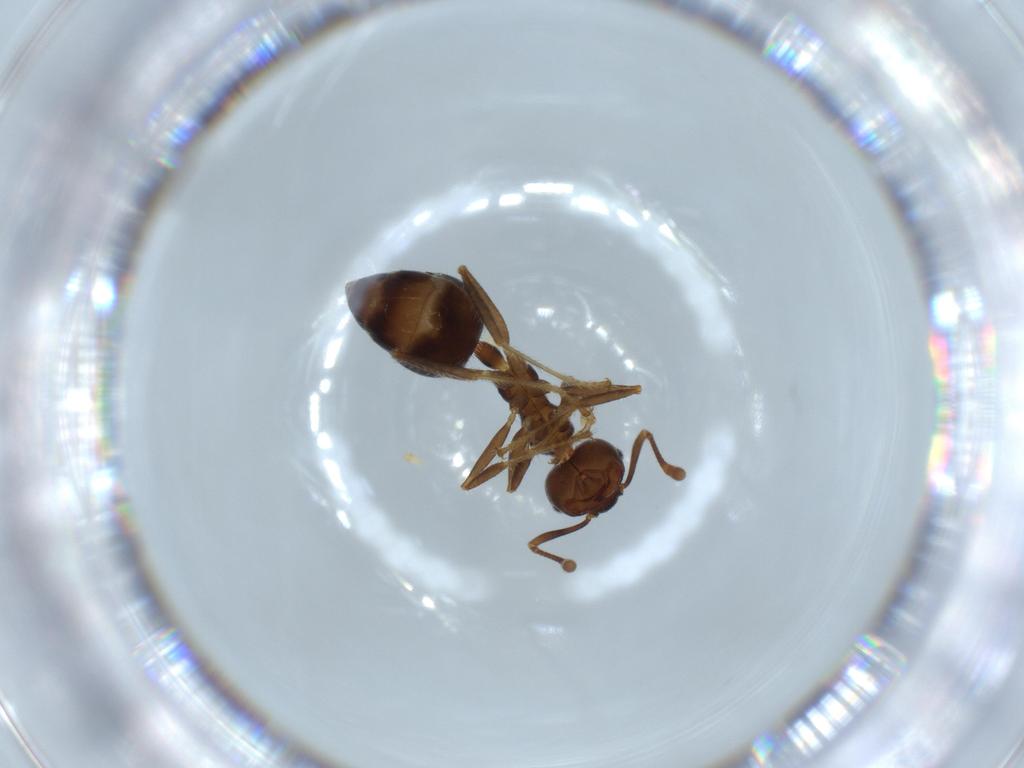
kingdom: Animalia
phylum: Arthropoda
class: Insecta
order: Hymenoptera
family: Formicidae
